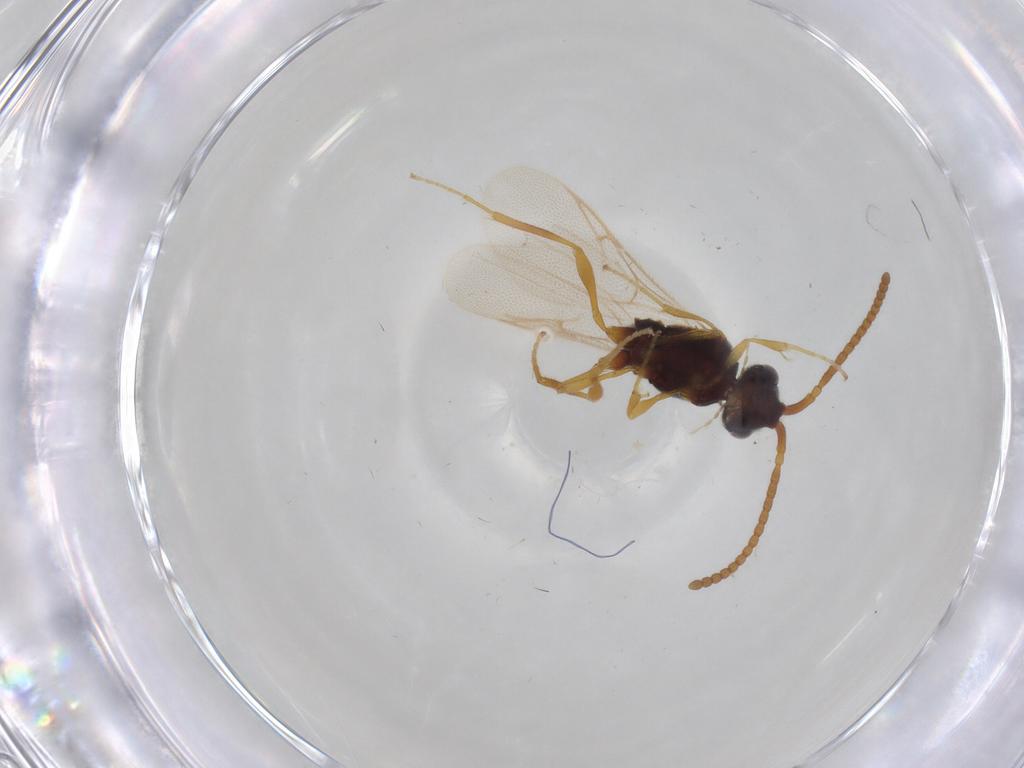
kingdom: Animalia
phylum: Arthropoda
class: Insecta
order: Hymenoptera
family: Diapriidae
